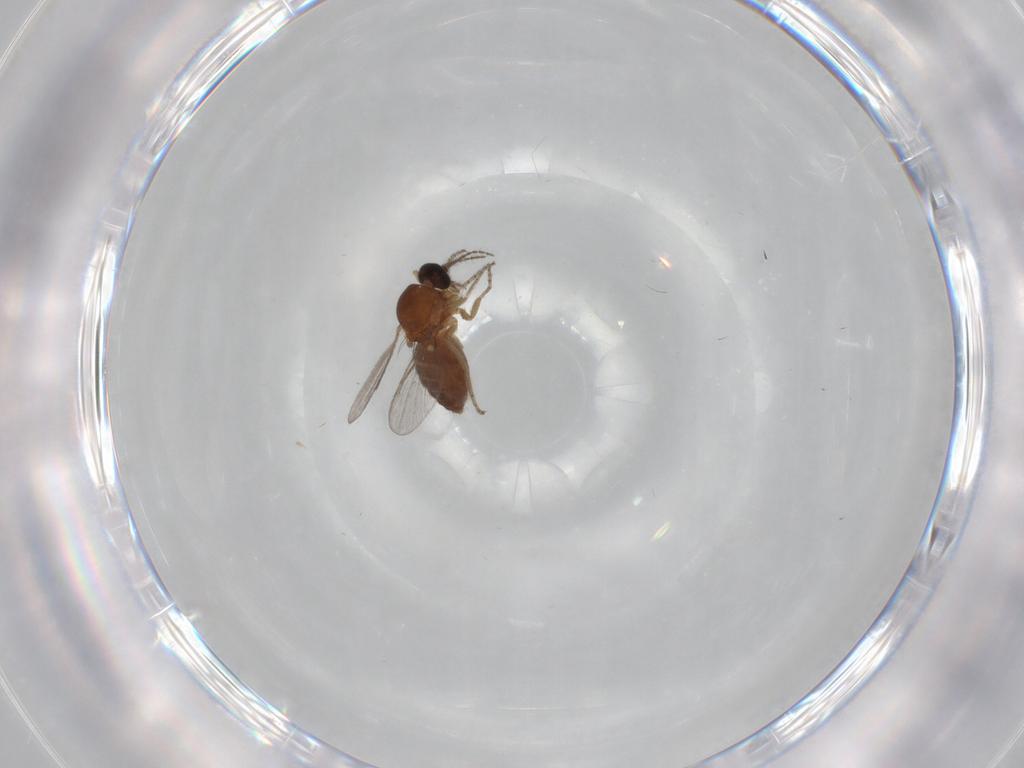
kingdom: Animalia
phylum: Arthropoda
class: Insecta
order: Diptera
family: Ceratopogonidae
